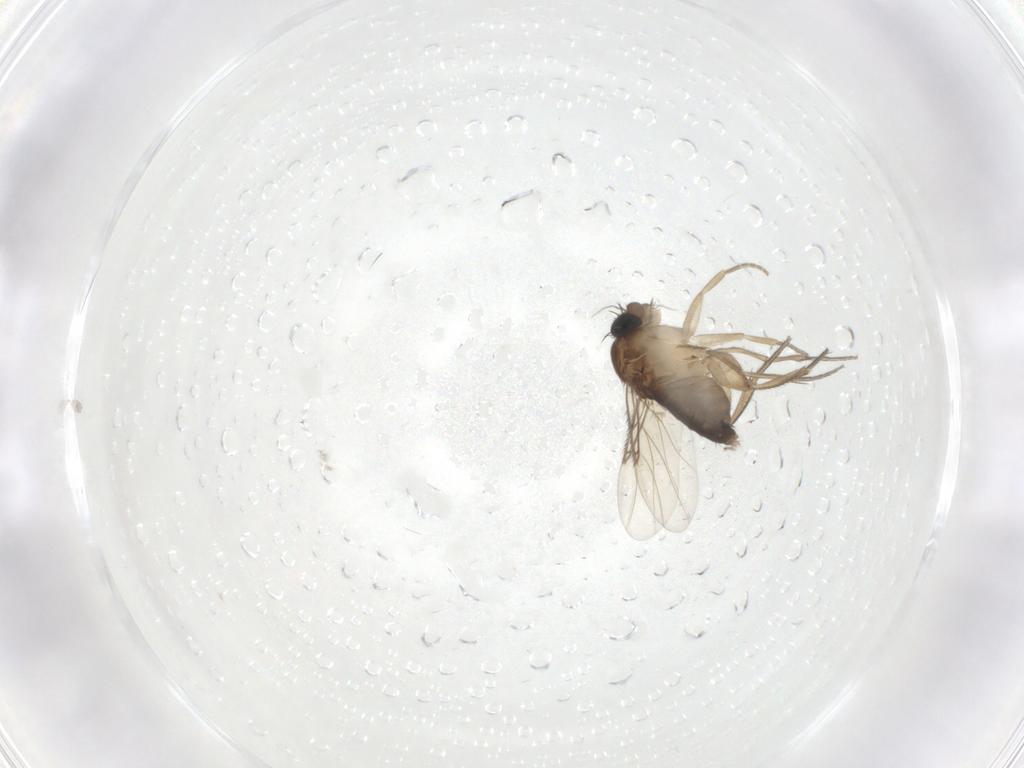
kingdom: Animalia
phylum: Arthropoda
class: Insecta
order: Diptera
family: Phoridae
